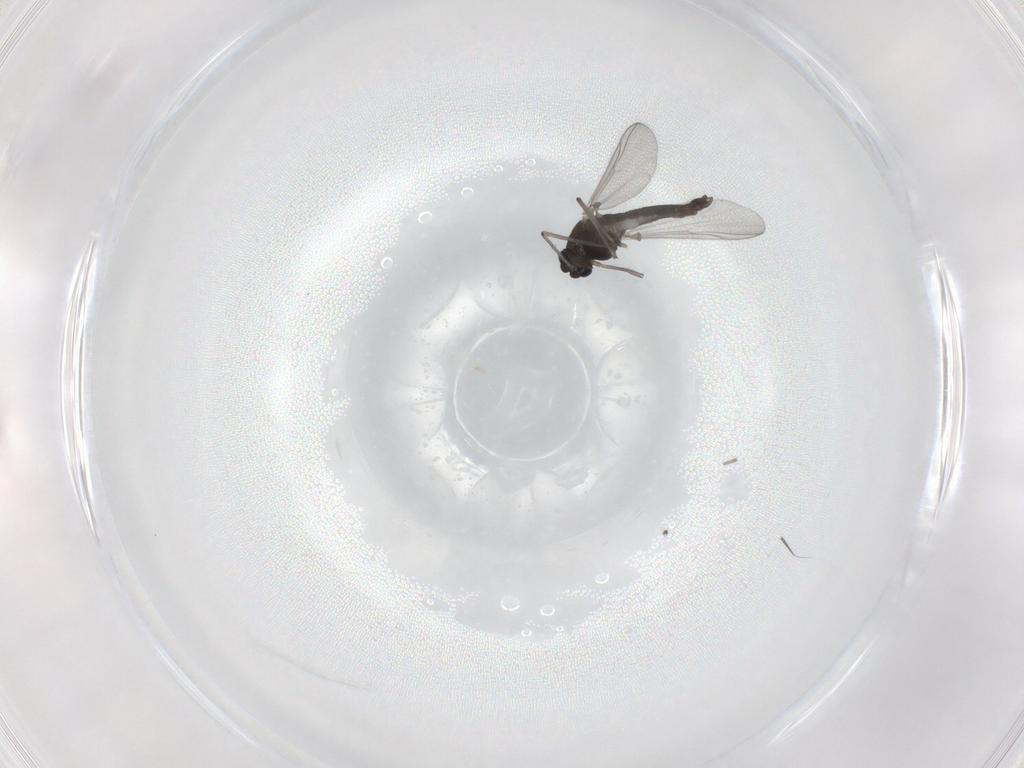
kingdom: Animalia
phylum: Arthropoda
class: Insecta
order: Diptera
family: Chironomidae
